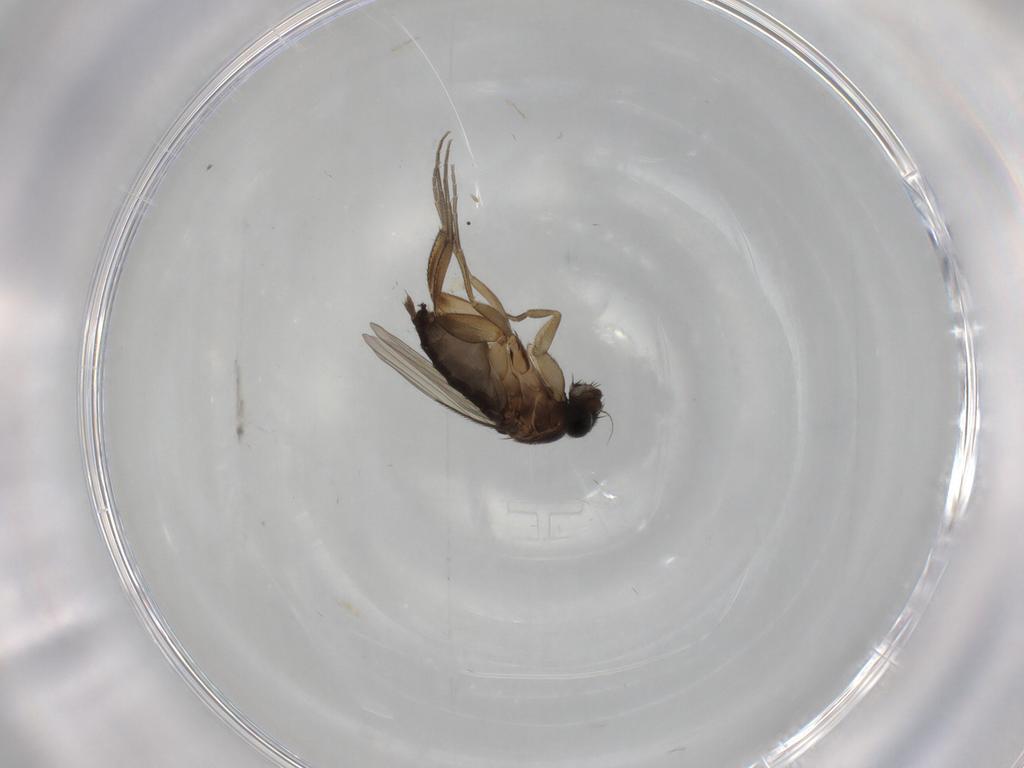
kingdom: Animalia
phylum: Arthropoda
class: Insecta
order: Diptera
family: Phoridae
